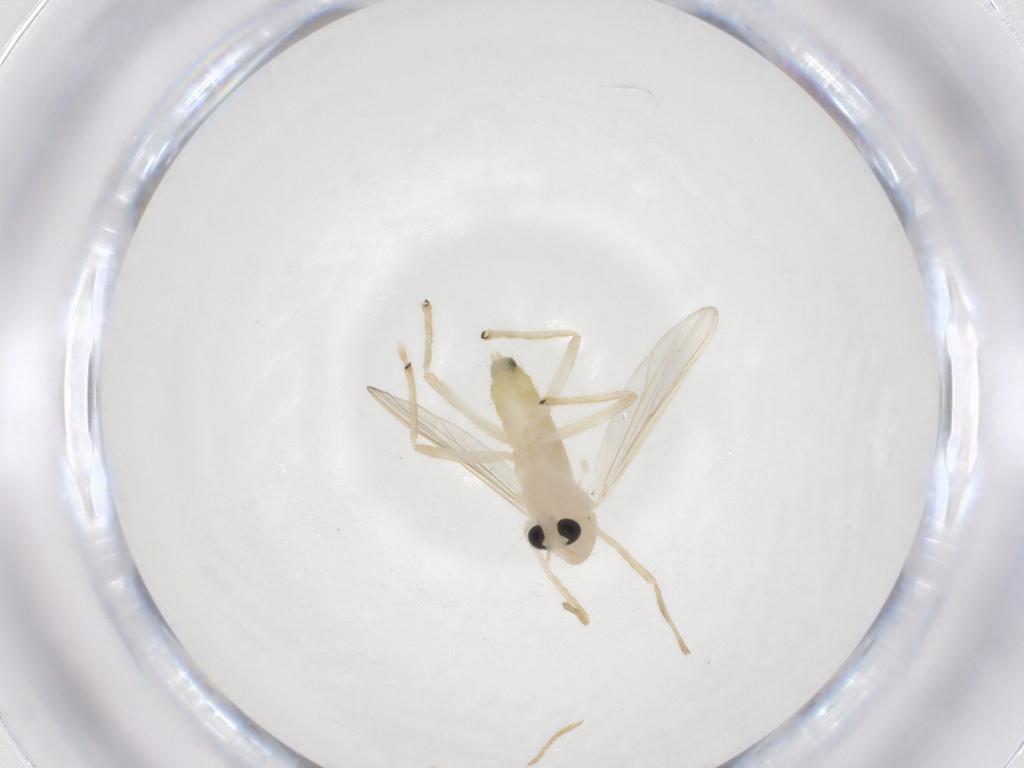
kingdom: Animalia
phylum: Arthropoda
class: Insecta
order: Diptera
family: Chironomidae
